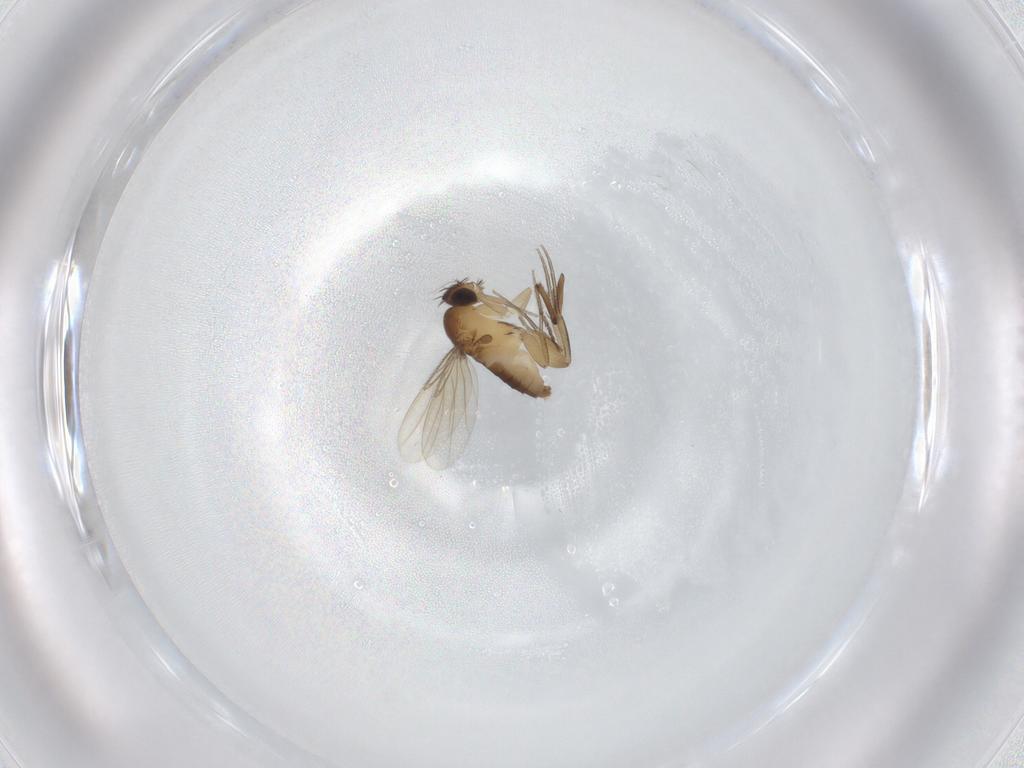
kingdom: Animalia
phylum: Arthropoda
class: Insecta
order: Diptera
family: Phoridae
